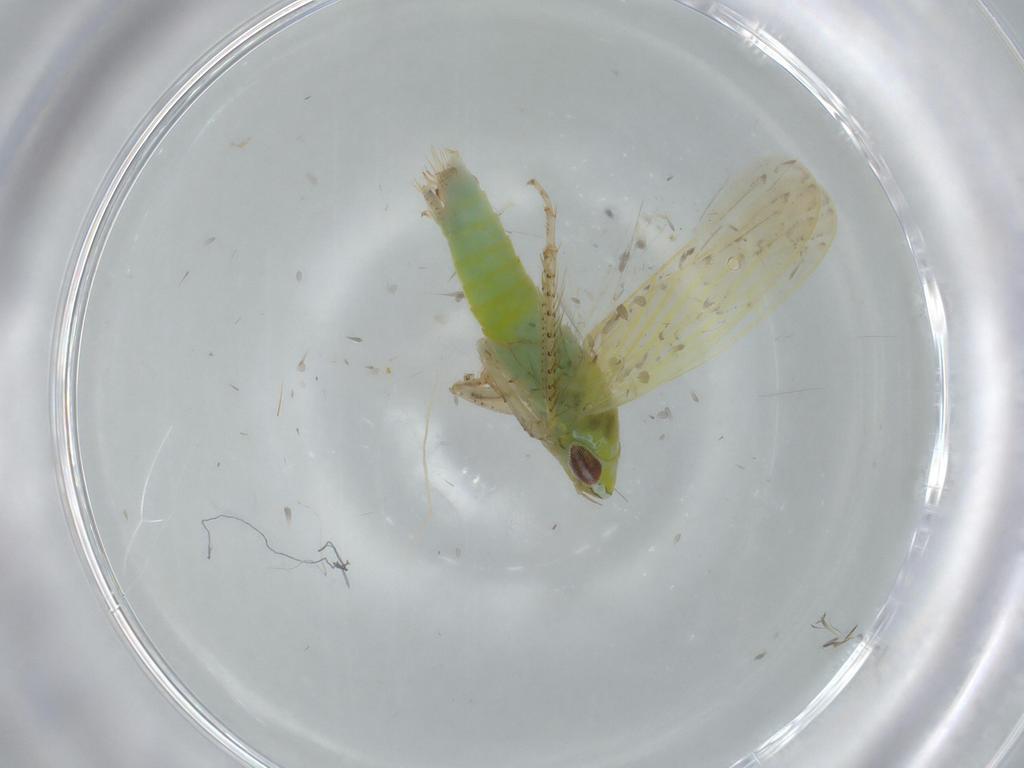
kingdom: Animalia
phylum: Arthropoda
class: Insecta
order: Hemiptera
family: Cicadellidae
